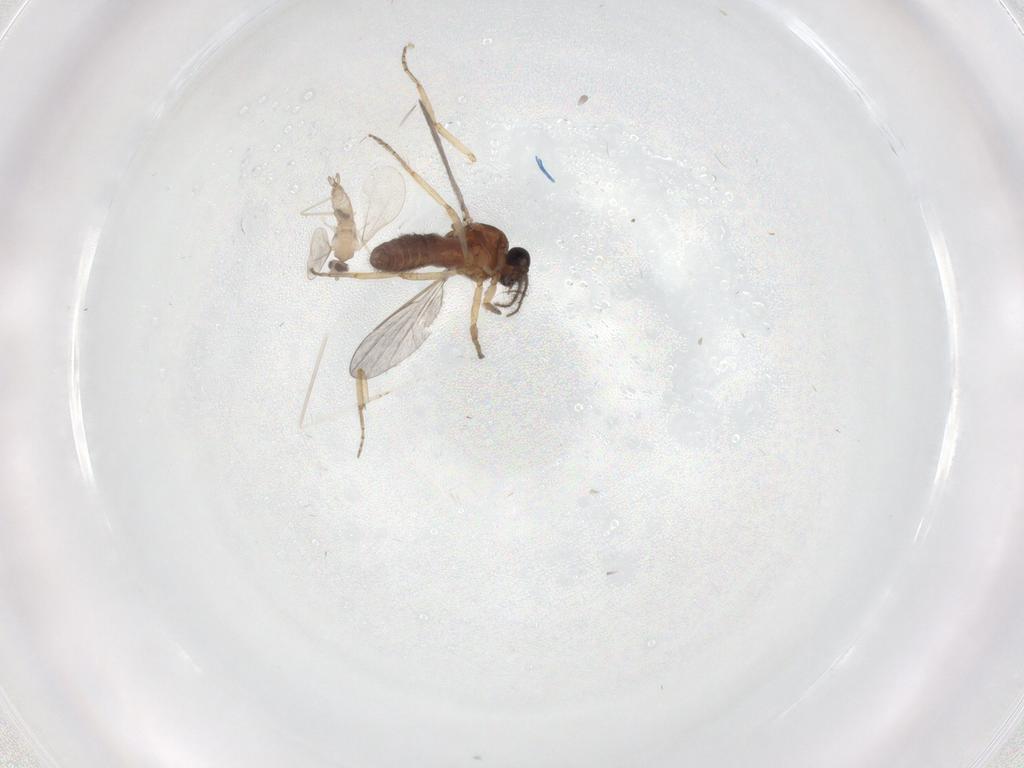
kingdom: Animalia
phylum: Arthropoda
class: Insecta
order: Diptera
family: Ceratopogonidae
